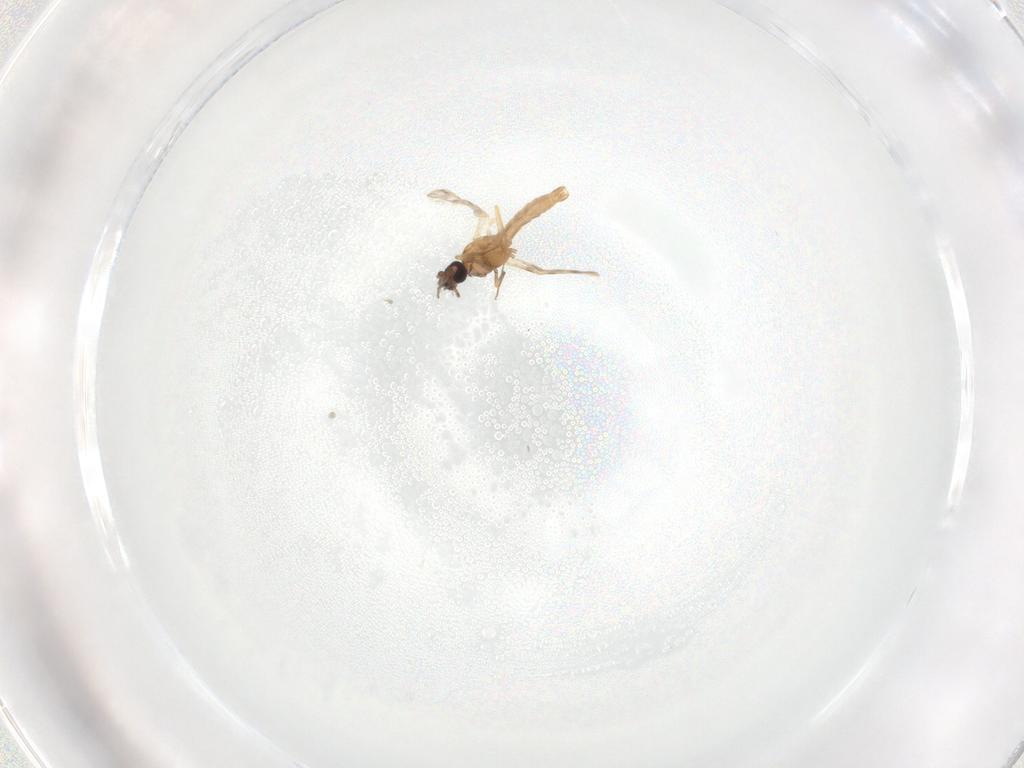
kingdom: Animalia
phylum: Arthropoda
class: Insecta
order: Diptera
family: Ceratopogonidae
